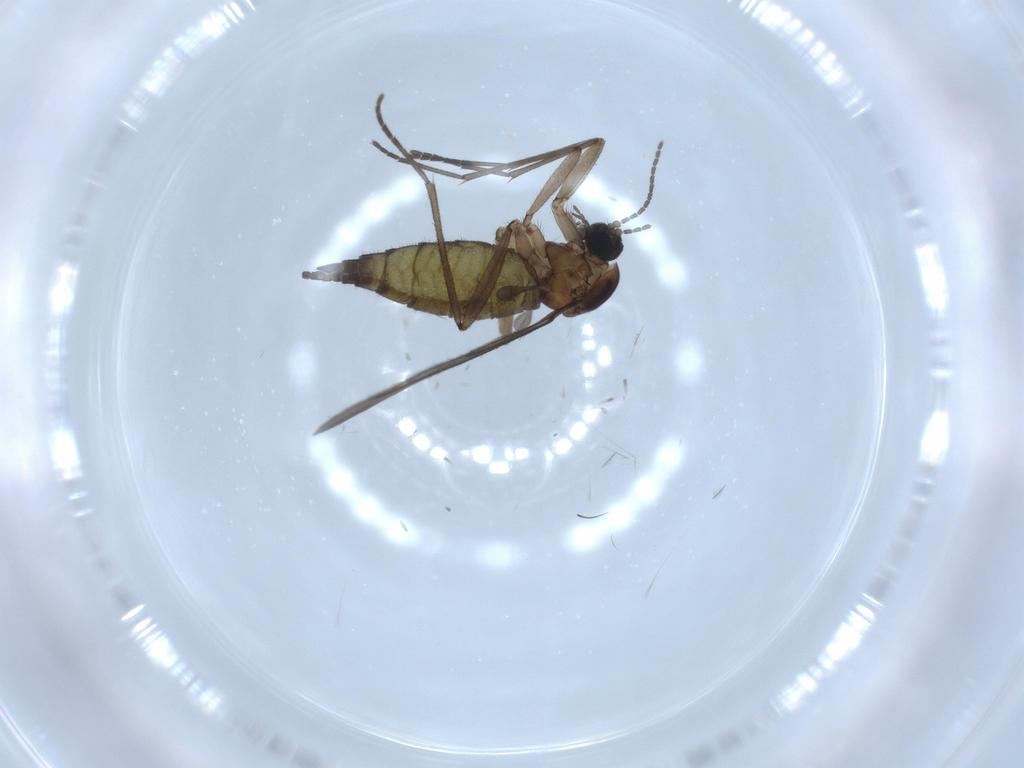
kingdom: Animalia
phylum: Arthropoda
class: Insecta
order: Diptera
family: Sciaridae
